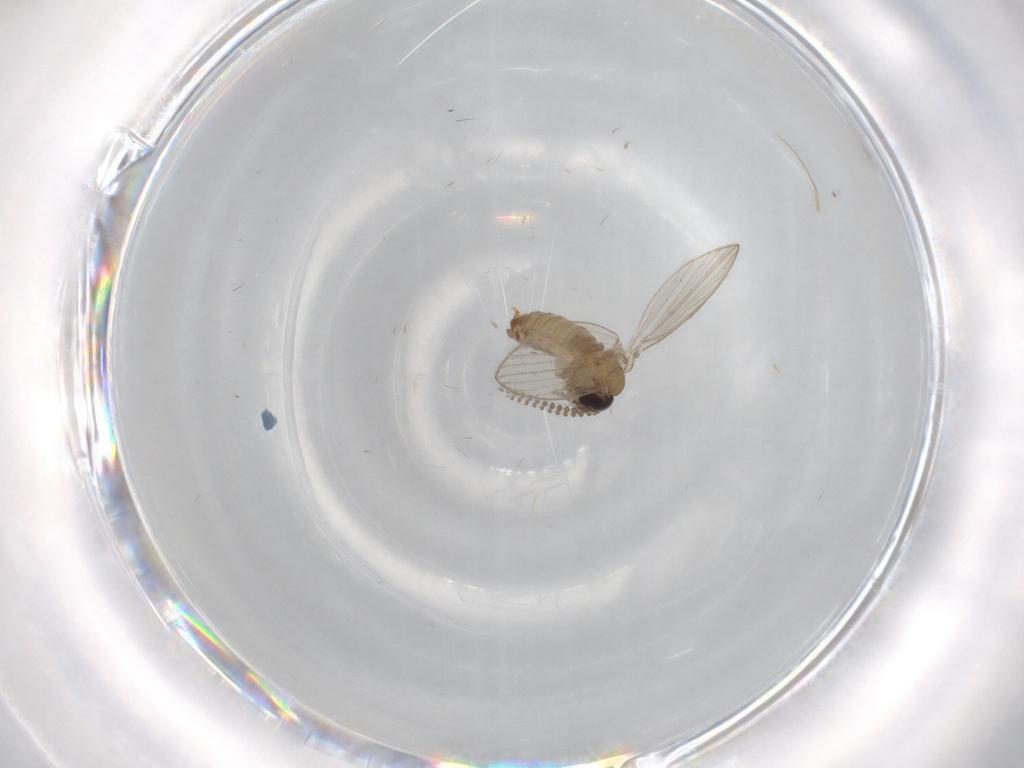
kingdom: Animalia
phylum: Arthropoda
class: Insecta
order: Diptera
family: Psychodidae
